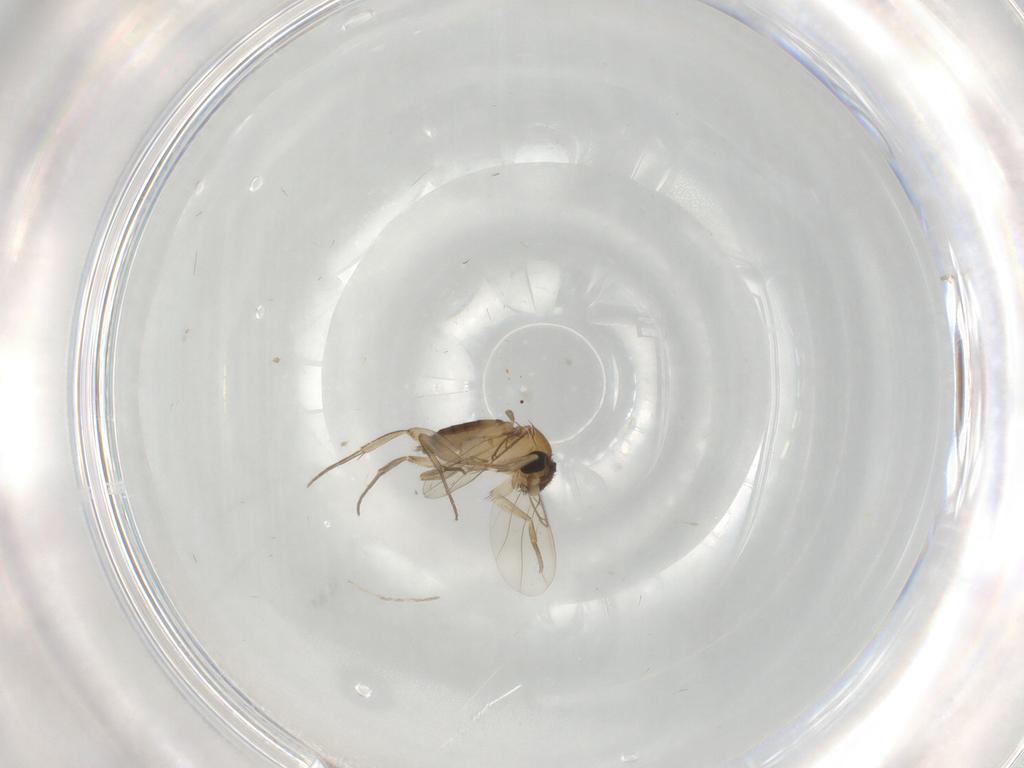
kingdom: Animalia
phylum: Arthropoda
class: Insecta
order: Diptera
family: Phoridae
